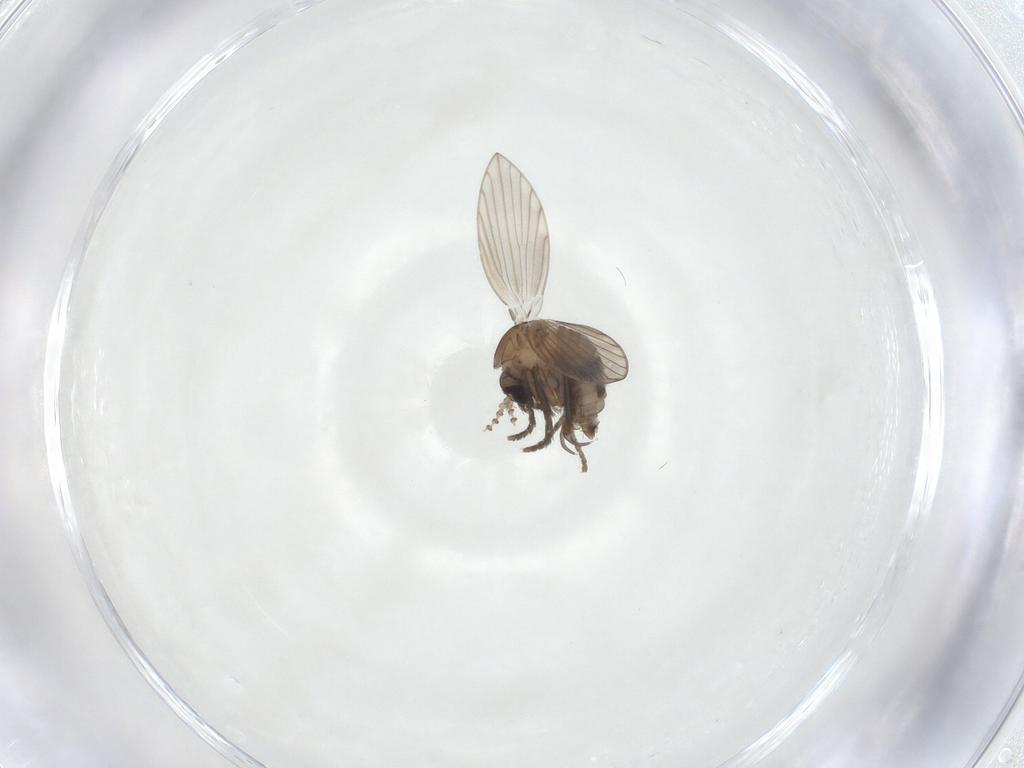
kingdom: Animalia
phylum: Arthropoda
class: Insecta
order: Diptera
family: Psychodidae
